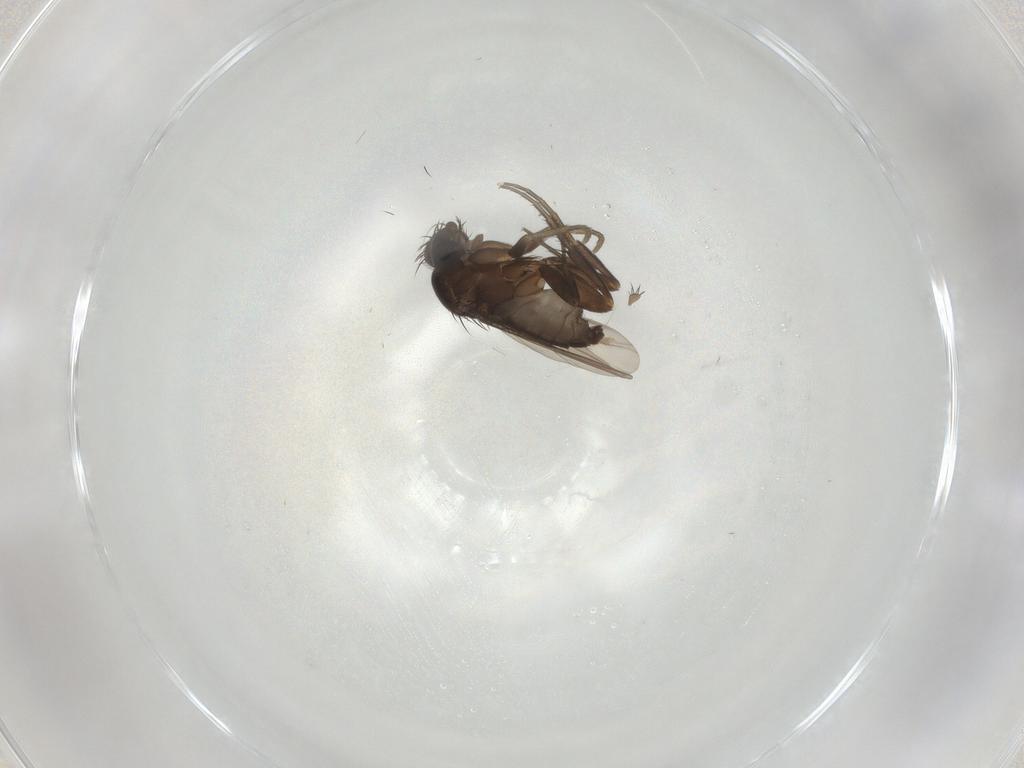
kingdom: Animalia
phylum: Arthropoda
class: Insecta
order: Diptera
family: Phoridae
